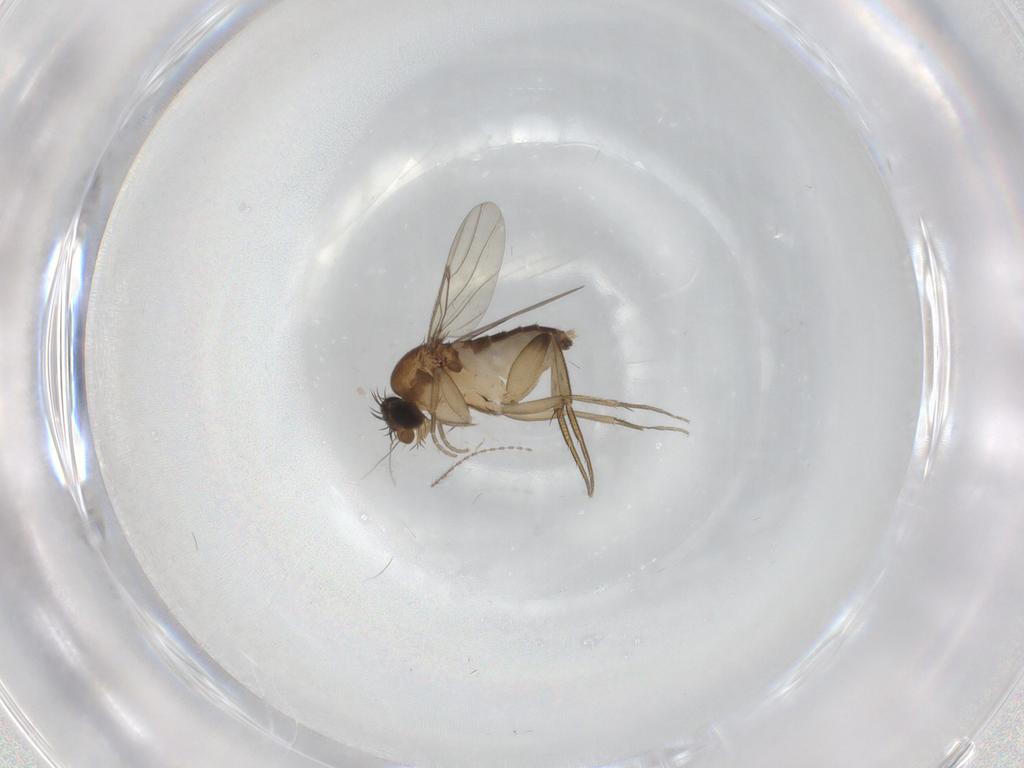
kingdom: Animalia
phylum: Arthropoda
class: Insecta
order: Diptera
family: Phoridae
